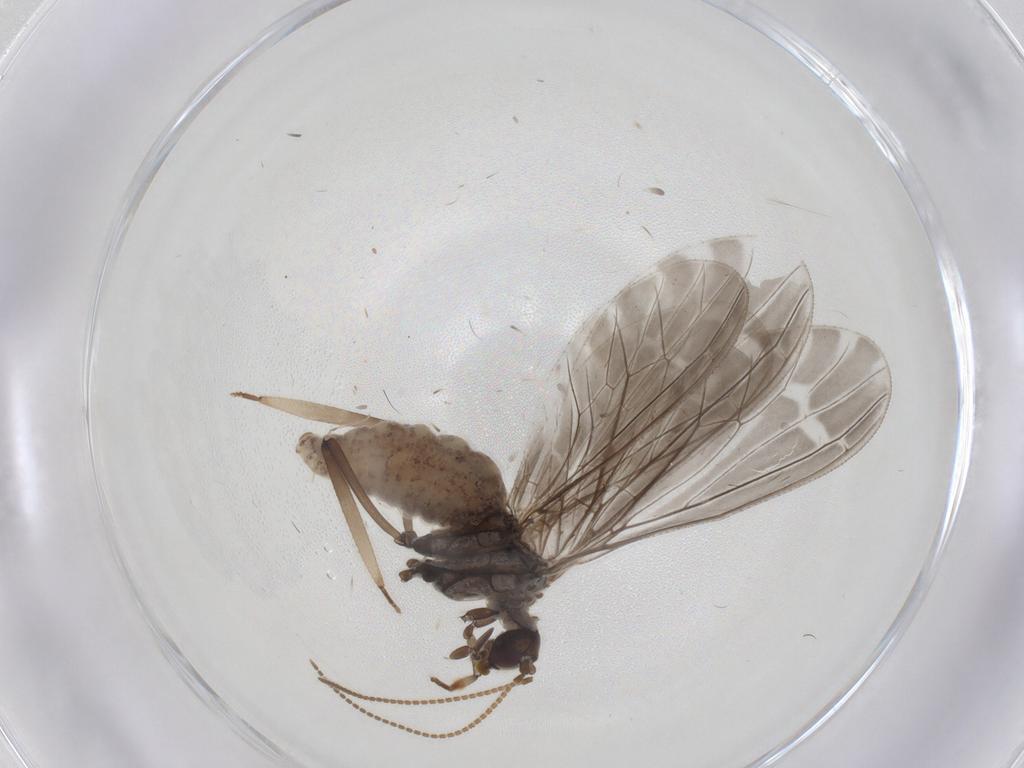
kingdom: Animalia
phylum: Arthropoda
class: Insecta
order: Neuroptera
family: Coniopterygidae
